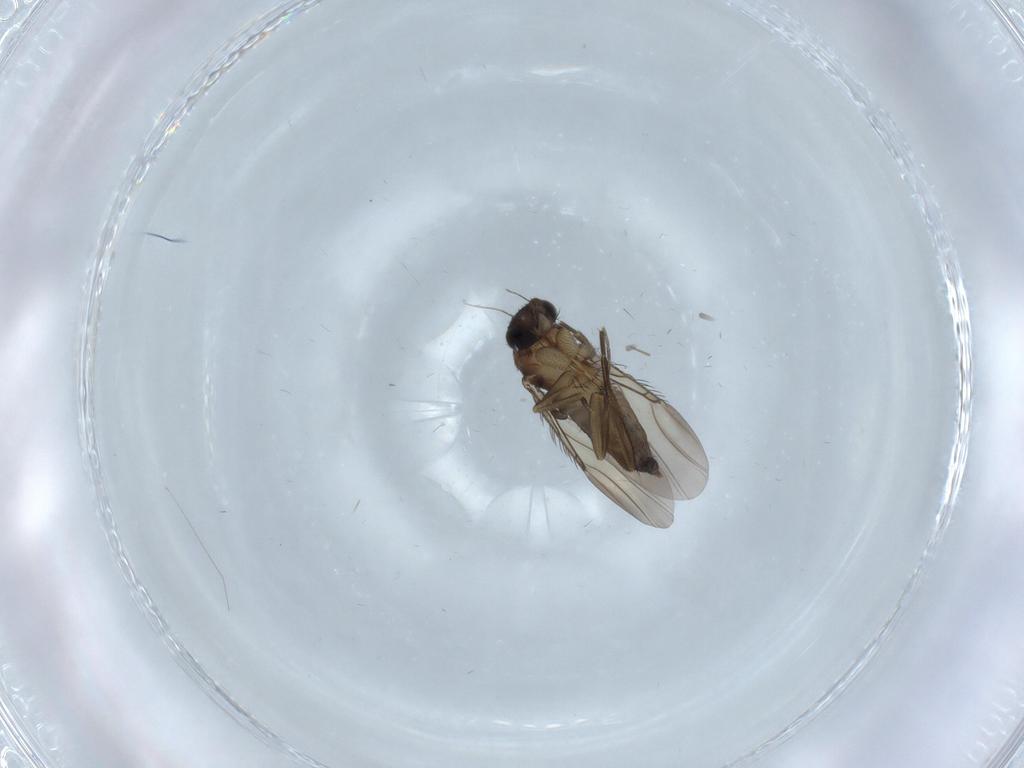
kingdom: Animalia
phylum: Arthropoda
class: Insecta
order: Diptera
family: Phoridae
